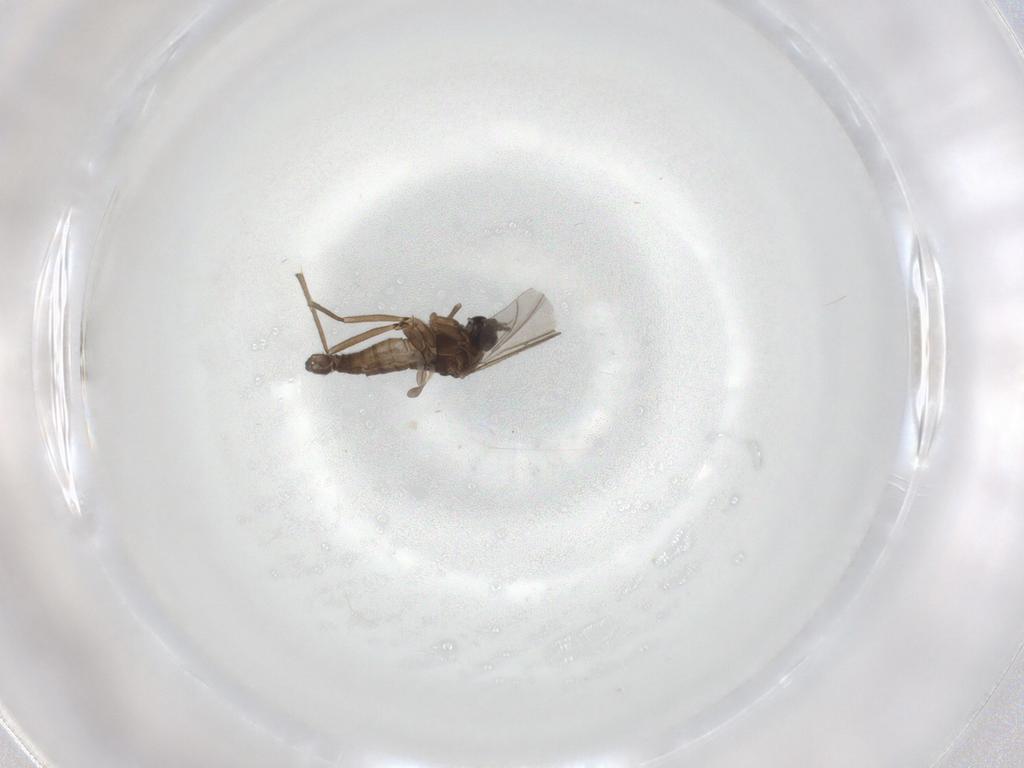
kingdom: Animalia
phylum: Arthropoda
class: Insecta
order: Diptera
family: Sciaridae
